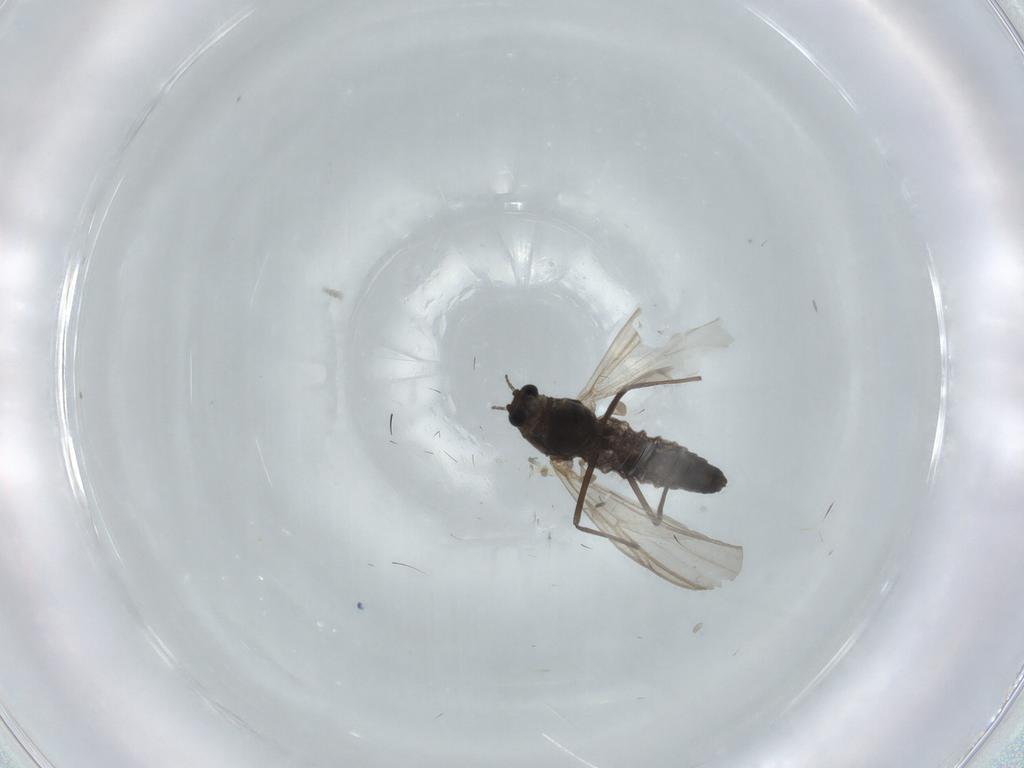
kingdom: Animalia
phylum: Arthropoda
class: Insecta
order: Diptera
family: Chironomidae
